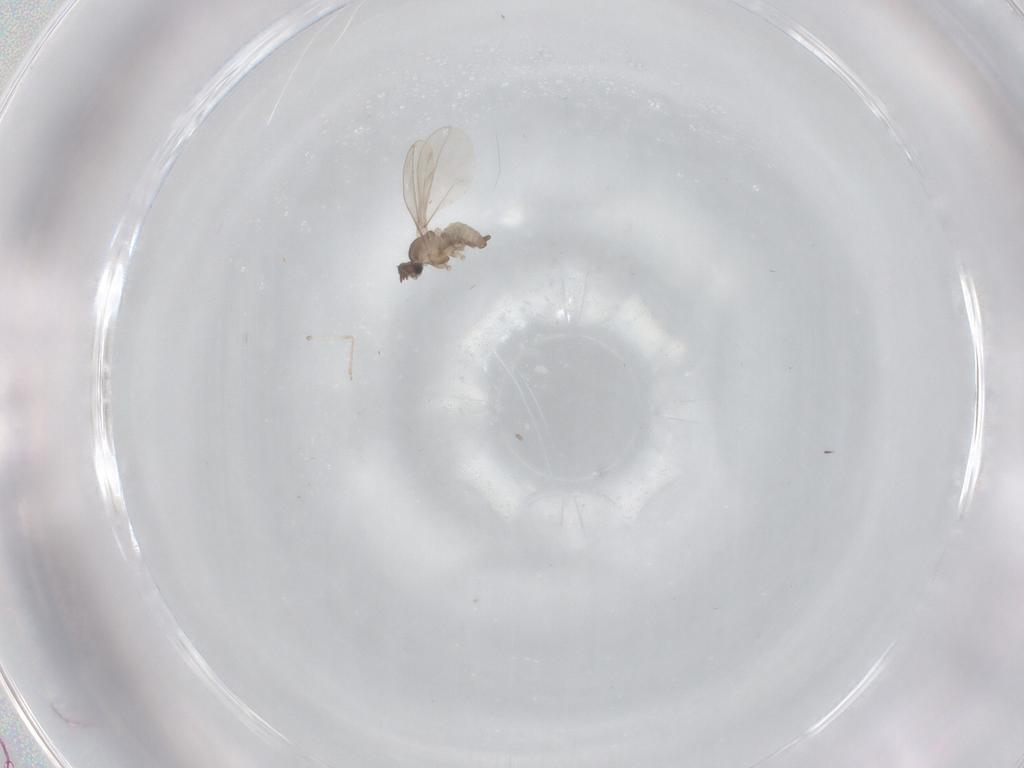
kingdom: Animalia
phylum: Arthropoda
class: Insecta
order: Diptera
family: Cecidomyiidae
